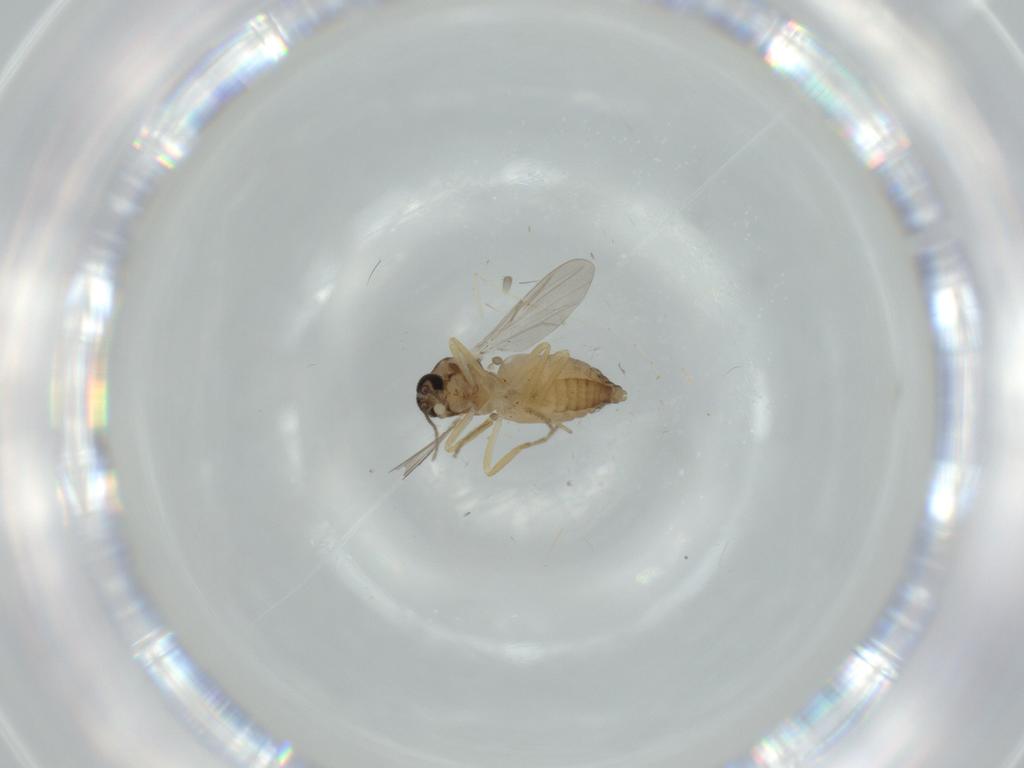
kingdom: Animalia
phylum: Arthropoda
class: Insecta
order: Diptera
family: Ceratopogonidae
